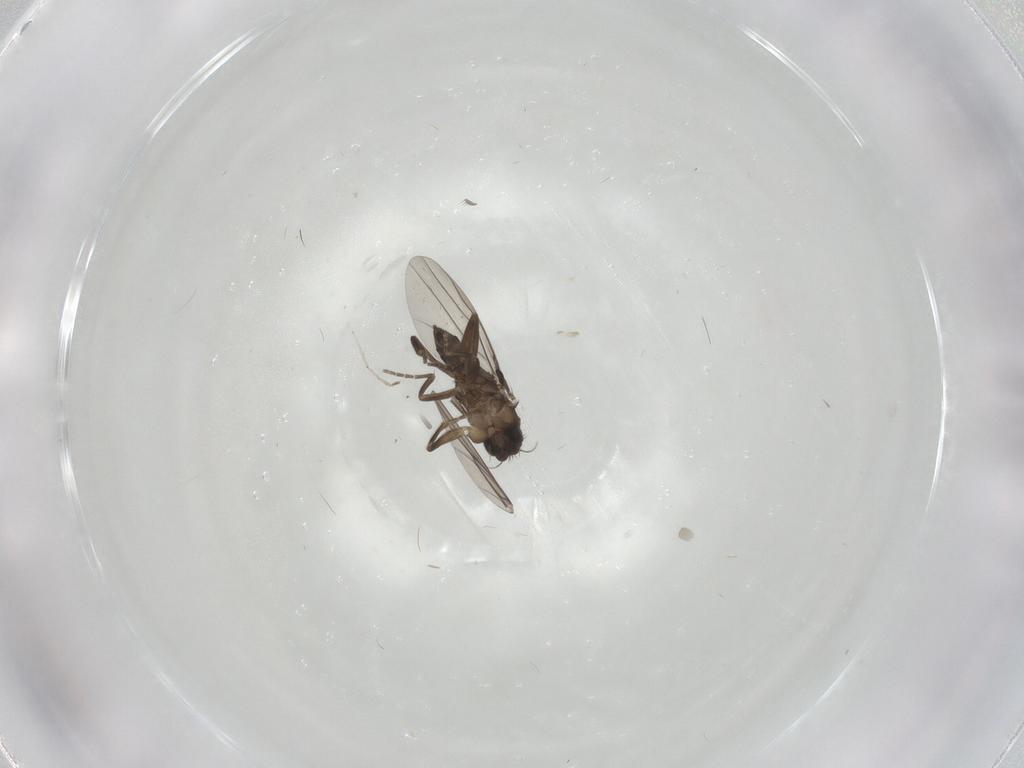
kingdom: Animalia
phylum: Arthropoda
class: Insecta
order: Diptera
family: Cecidomyiidae
